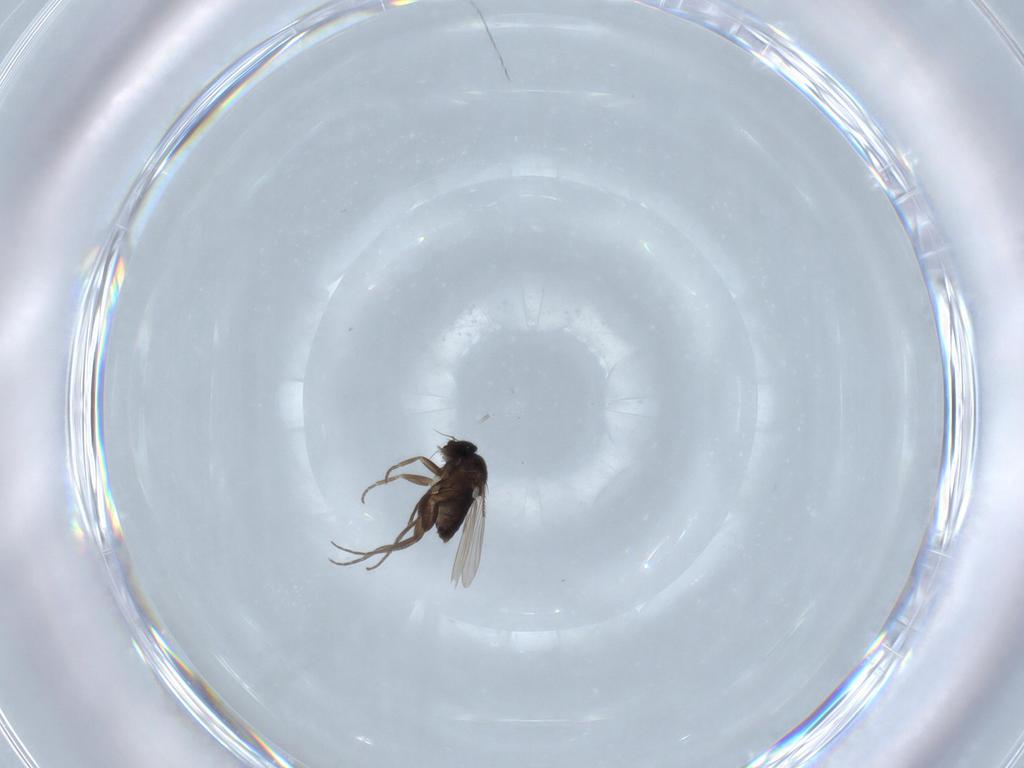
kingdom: Animalia
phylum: Arthropoda
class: Insecta
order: Diptera
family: Phoridae
